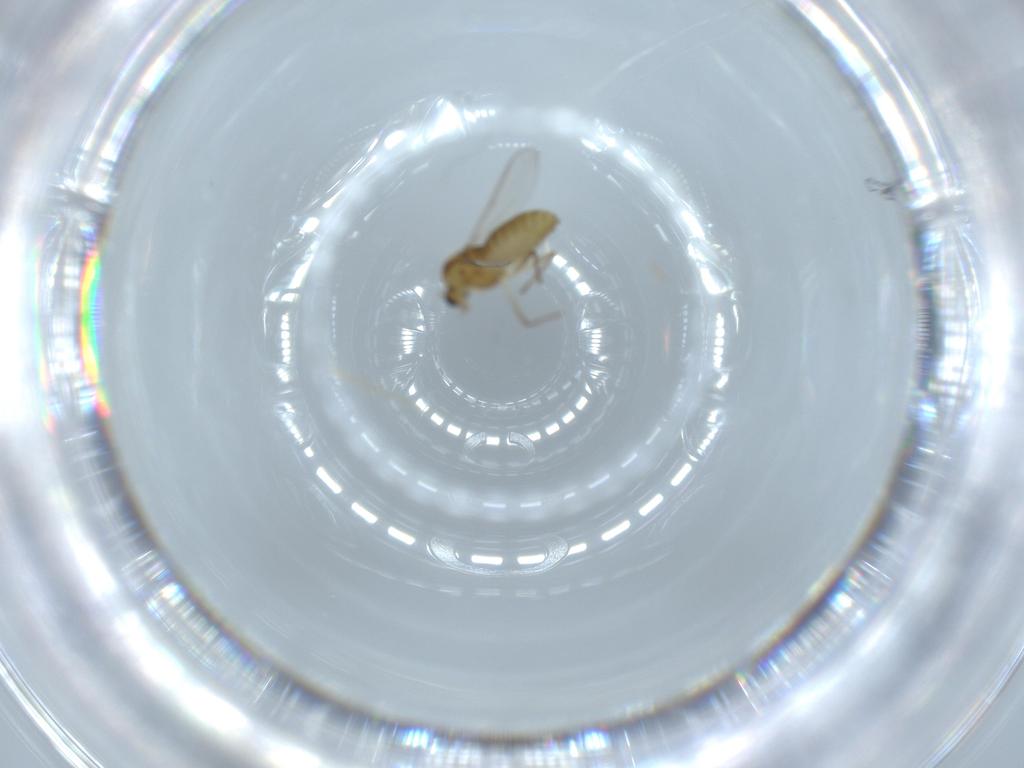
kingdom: Animalia
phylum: Arthropoda
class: Insecta
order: Diptera
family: Chironomidae
